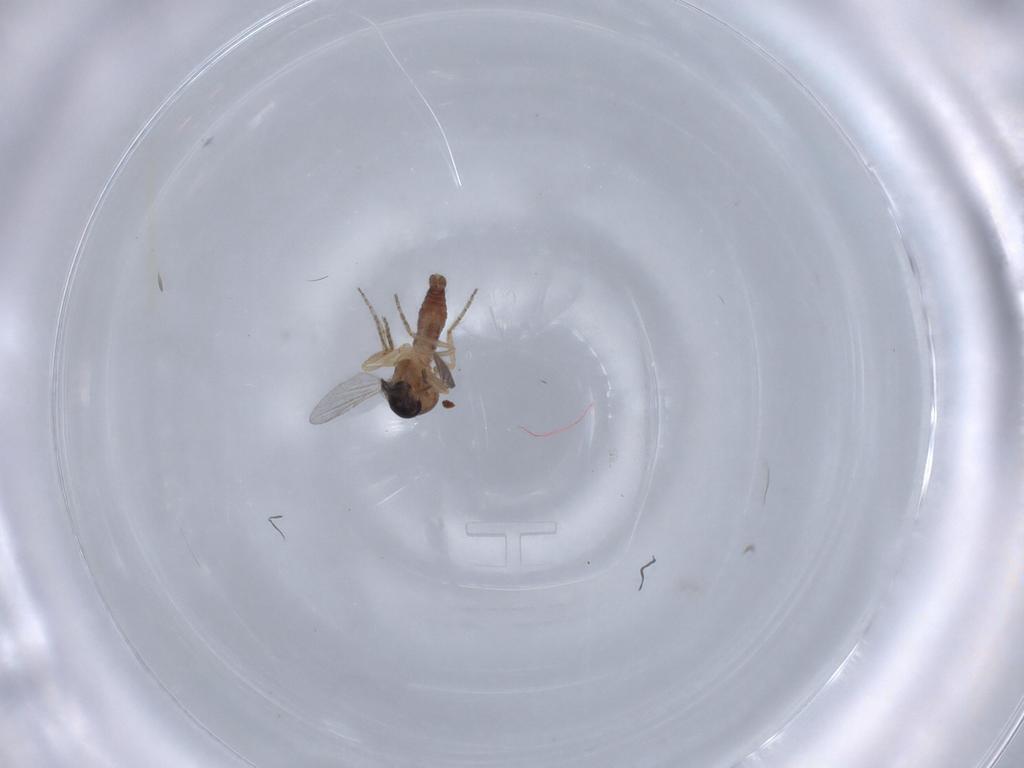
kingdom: Animalia
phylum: Arthropoda
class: Insecta
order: Diptera
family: Ceratopogonidae
